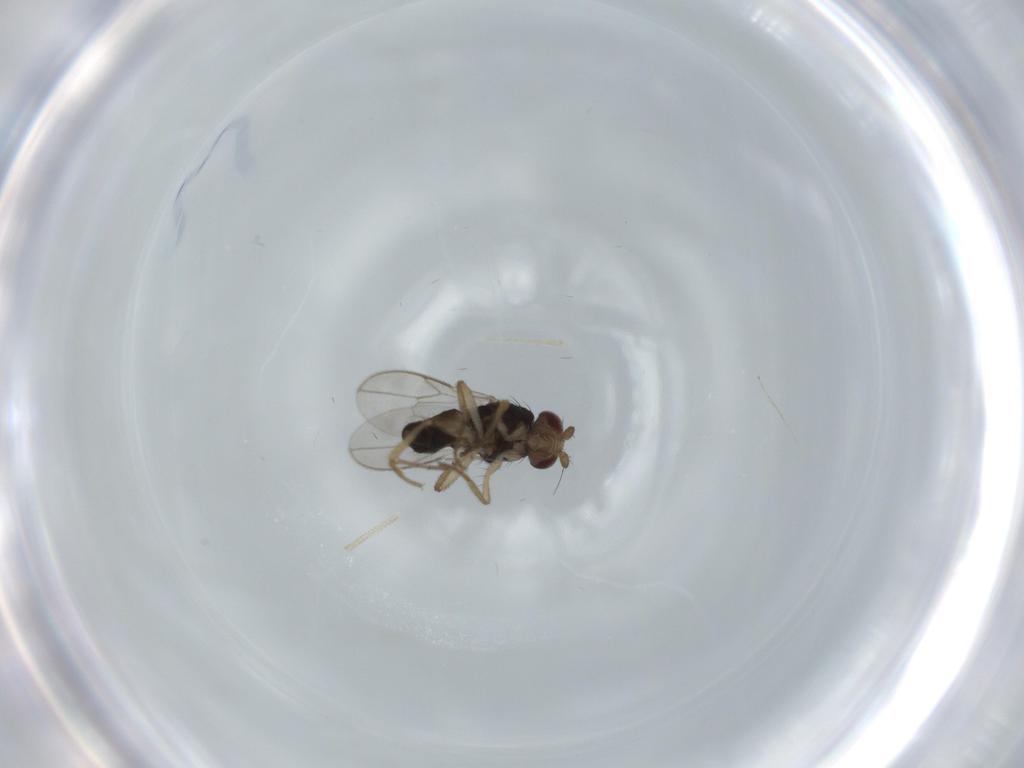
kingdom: Animalia
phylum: Arthropoda
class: Insecta
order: Diptera
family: Sphaeroceridae
